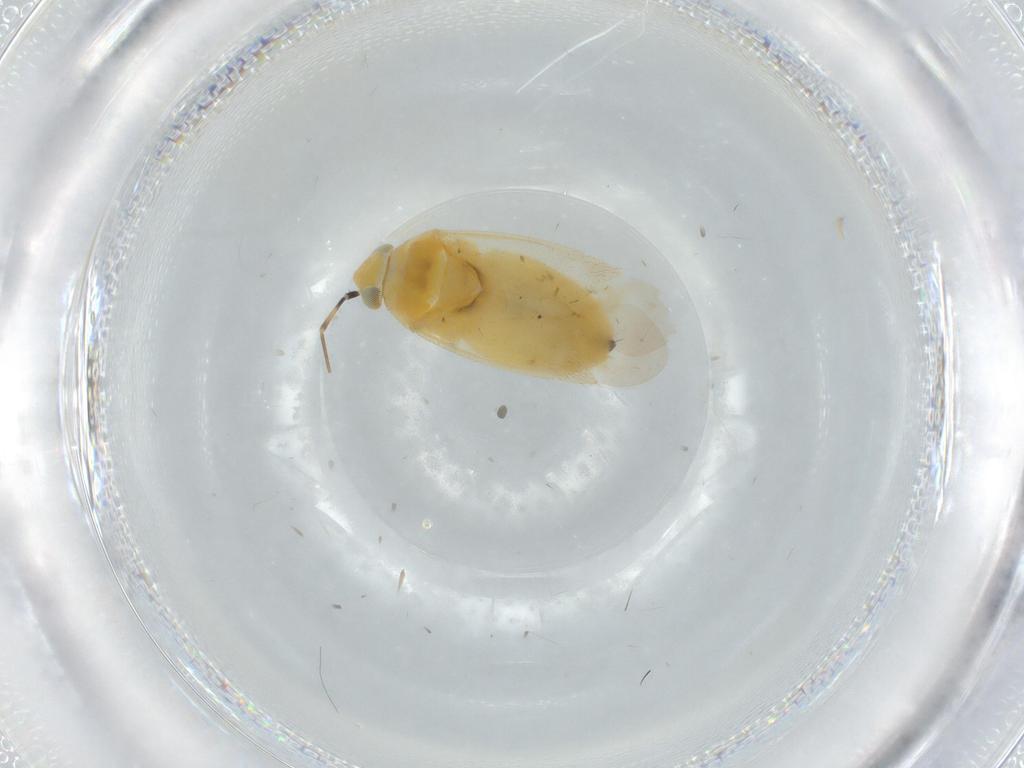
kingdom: Animalia
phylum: Arthropoda
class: Insecta
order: Hemiptera
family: Miridae
